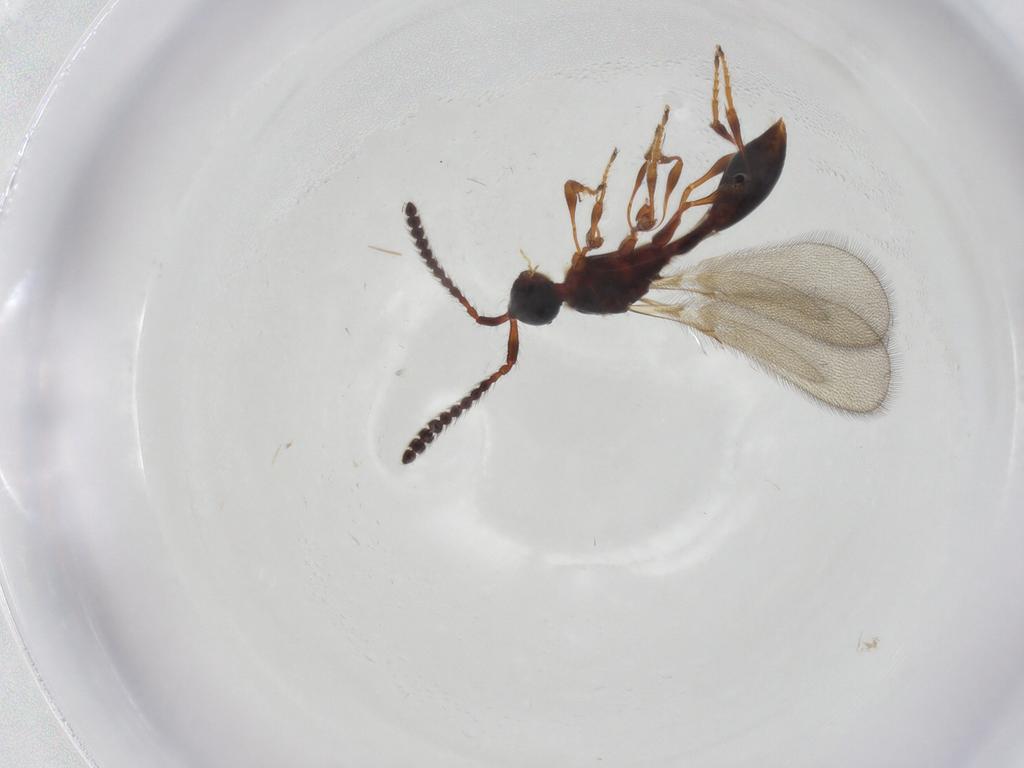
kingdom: Animalia
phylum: Arthropoda
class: Insecta
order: Hymenoptera
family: Diapriidae
